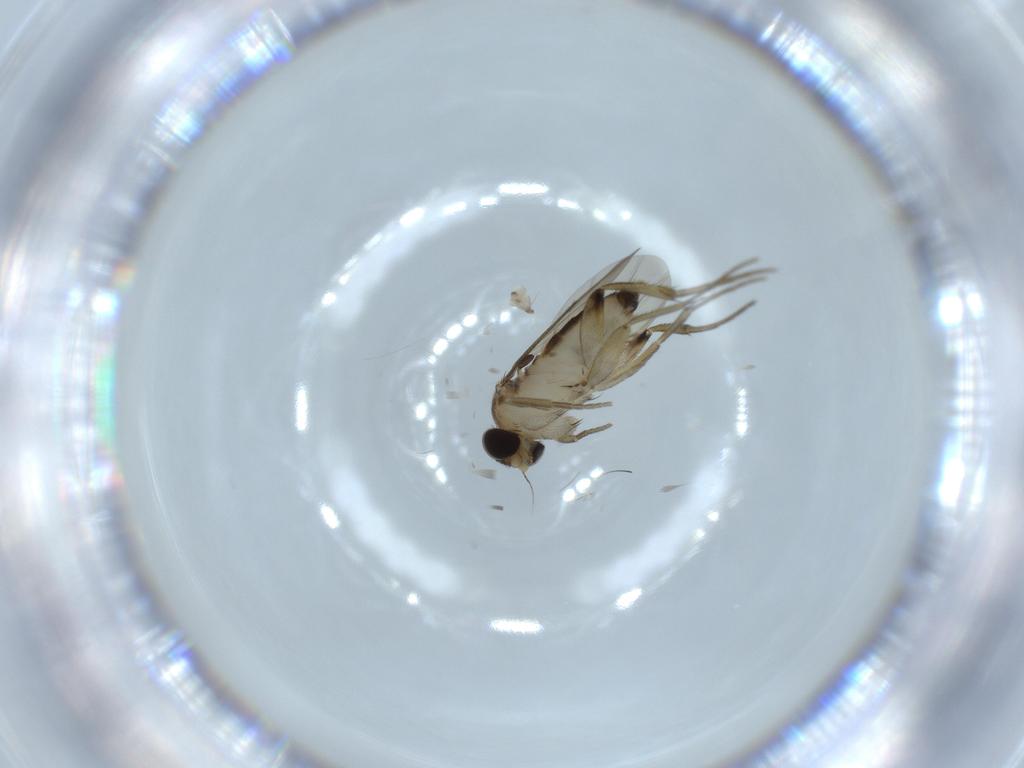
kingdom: Animalia
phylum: Arthropoda
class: Insecta
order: Diptera
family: Phoridae
